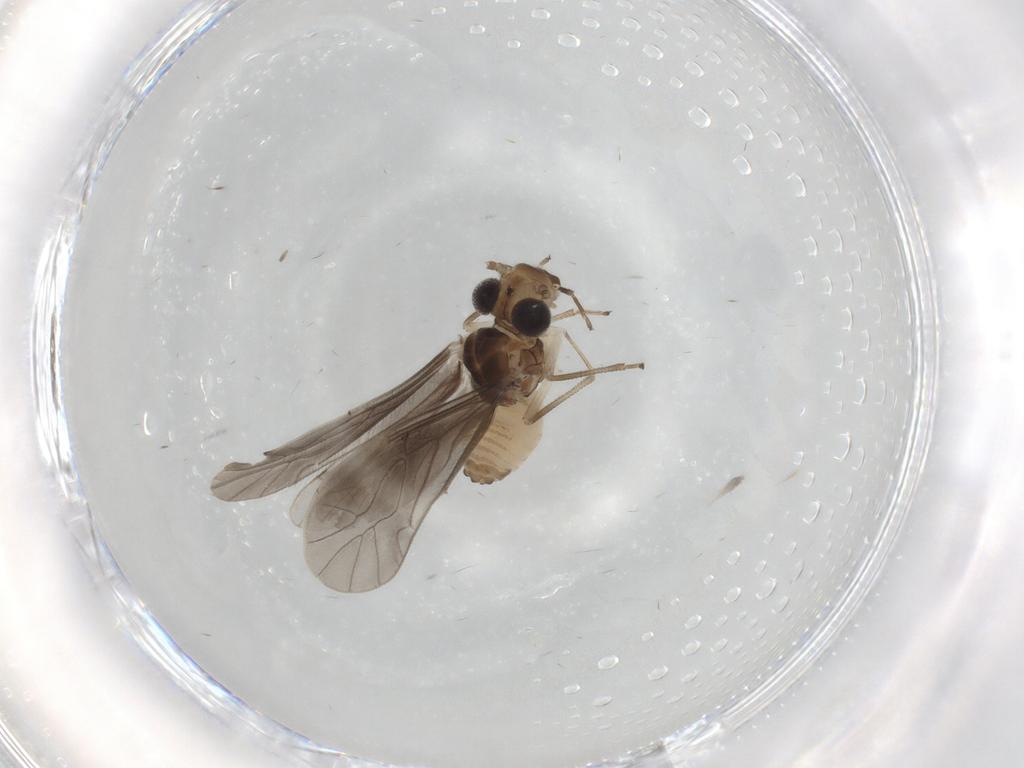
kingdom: Animalia
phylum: Arthropoda
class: Insecta
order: Psocodea
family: Caeciliusidae
